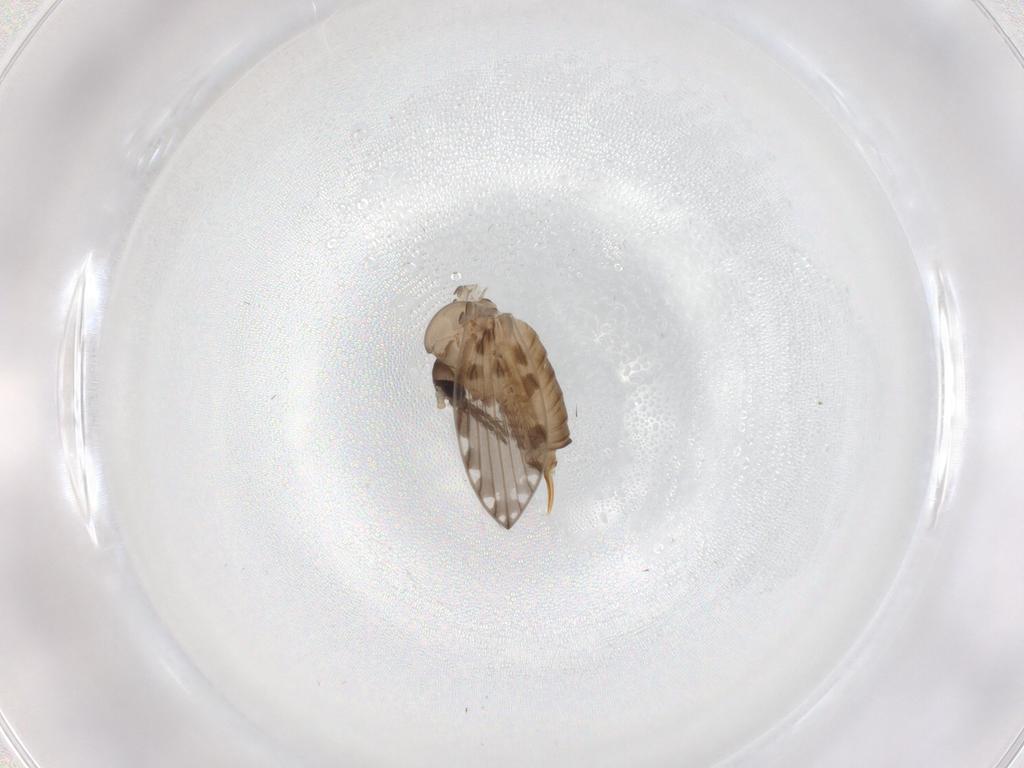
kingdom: Animalia
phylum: Arthropoda
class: Insecta
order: Diptera
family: Psychodidae
